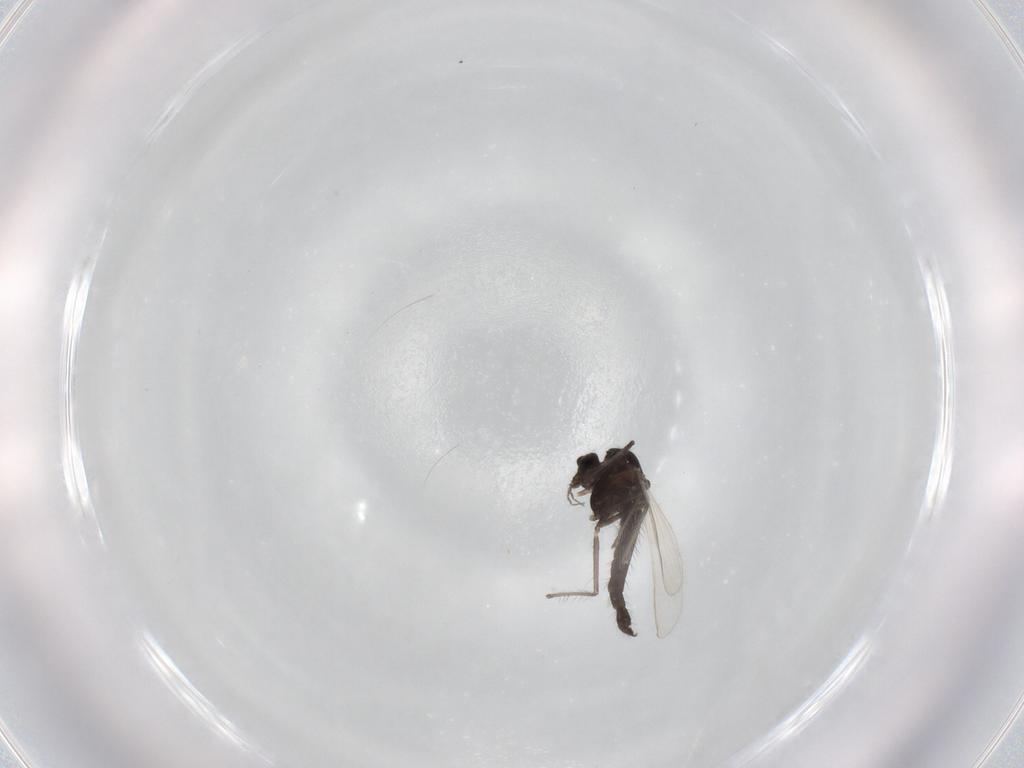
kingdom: Animalia
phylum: Arthropoda
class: Insecta
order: Diptera
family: Chironomidae
